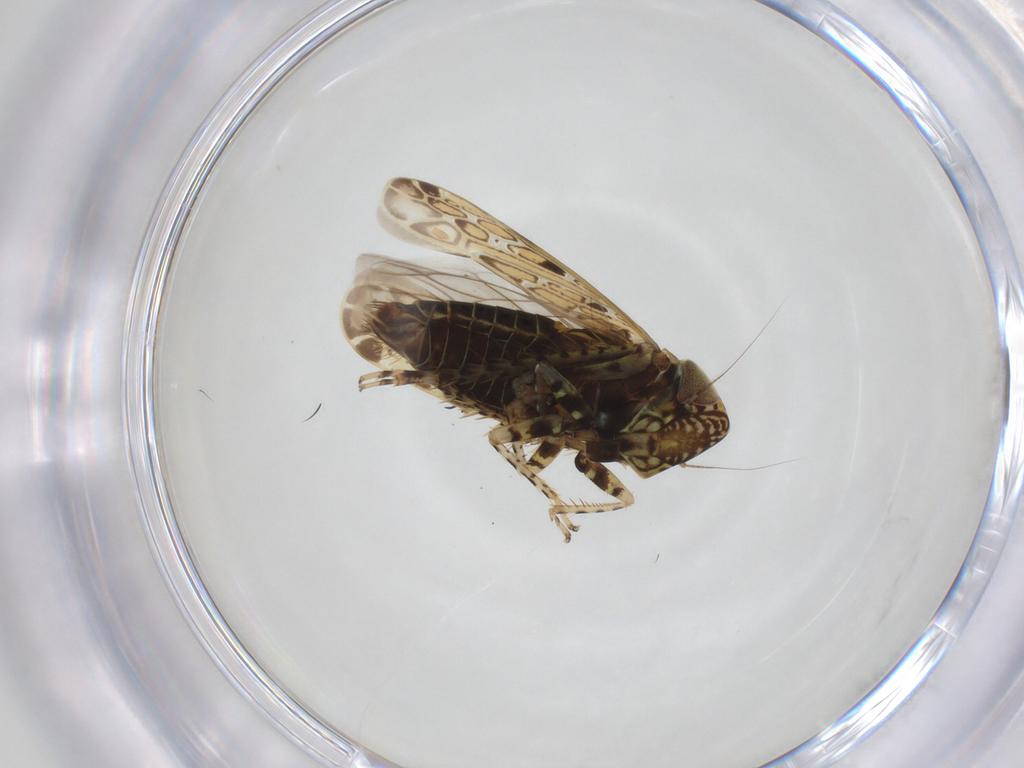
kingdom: Animalia
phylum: Arthropoda
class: Insecta
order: Hemiptera
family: Cicadellidae
